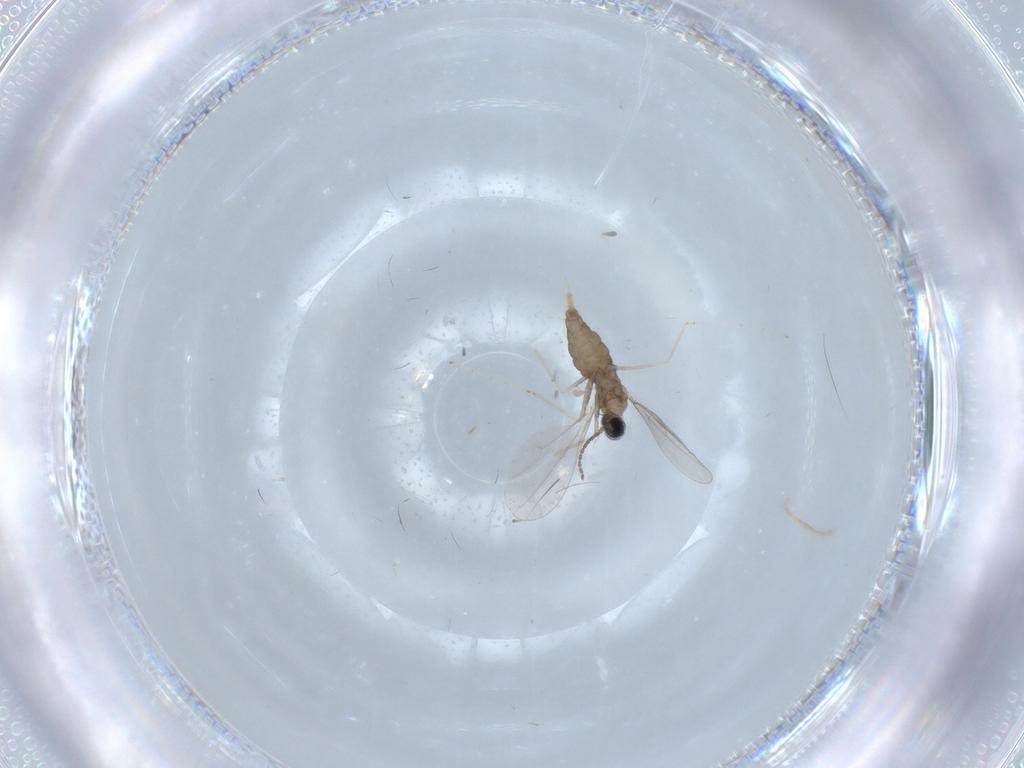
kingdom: Animalia
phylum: Arthropoda
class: Insecta
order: Diptera
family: Cecidomyiidae
